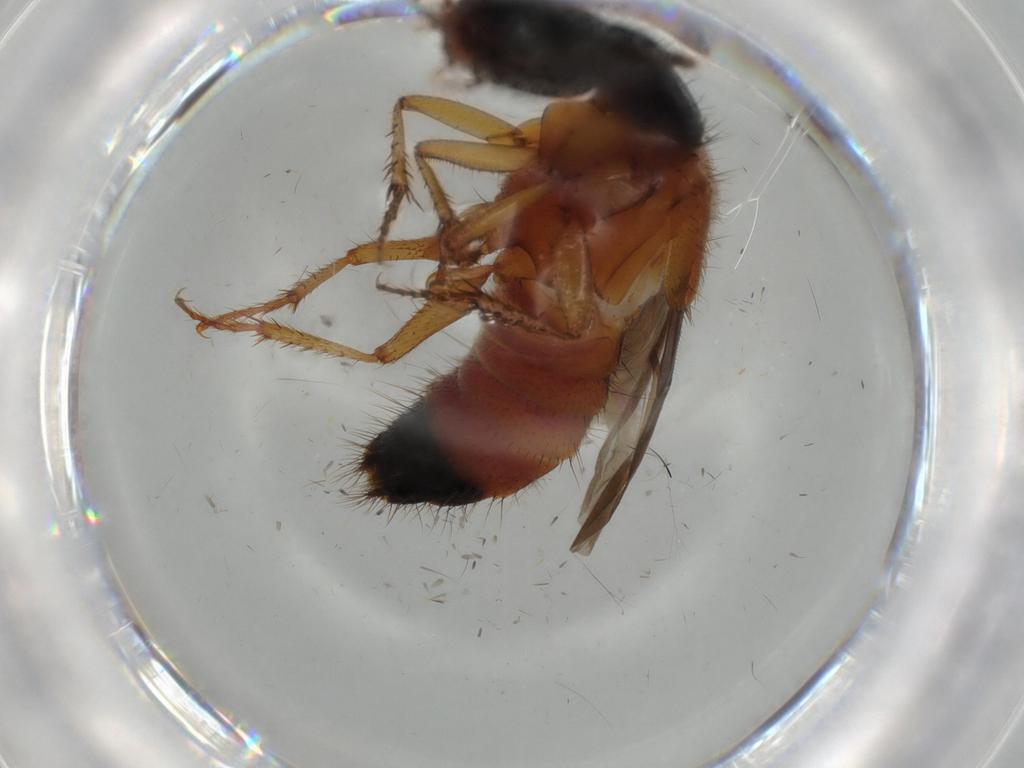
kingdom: Animalia
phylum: Arthropoda
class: Insecta
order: Coleoptera
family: Staphylinidae
